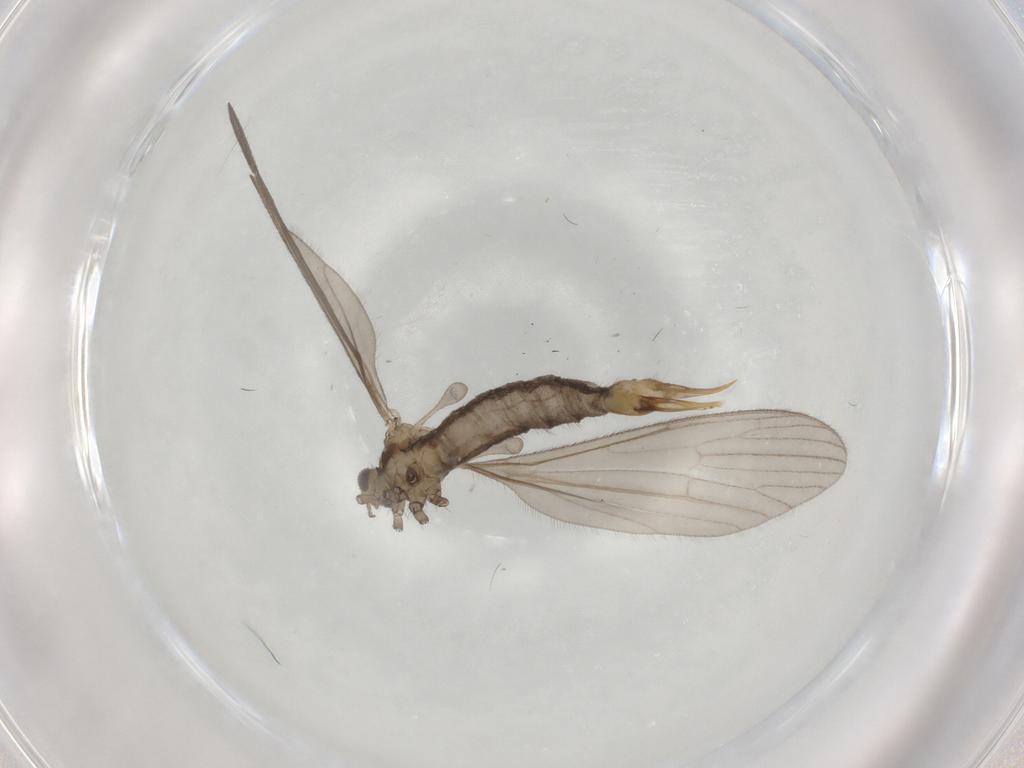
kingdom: Animalia
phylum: Arthropoda
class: Insecta
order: Diptera
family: Limoniidae
